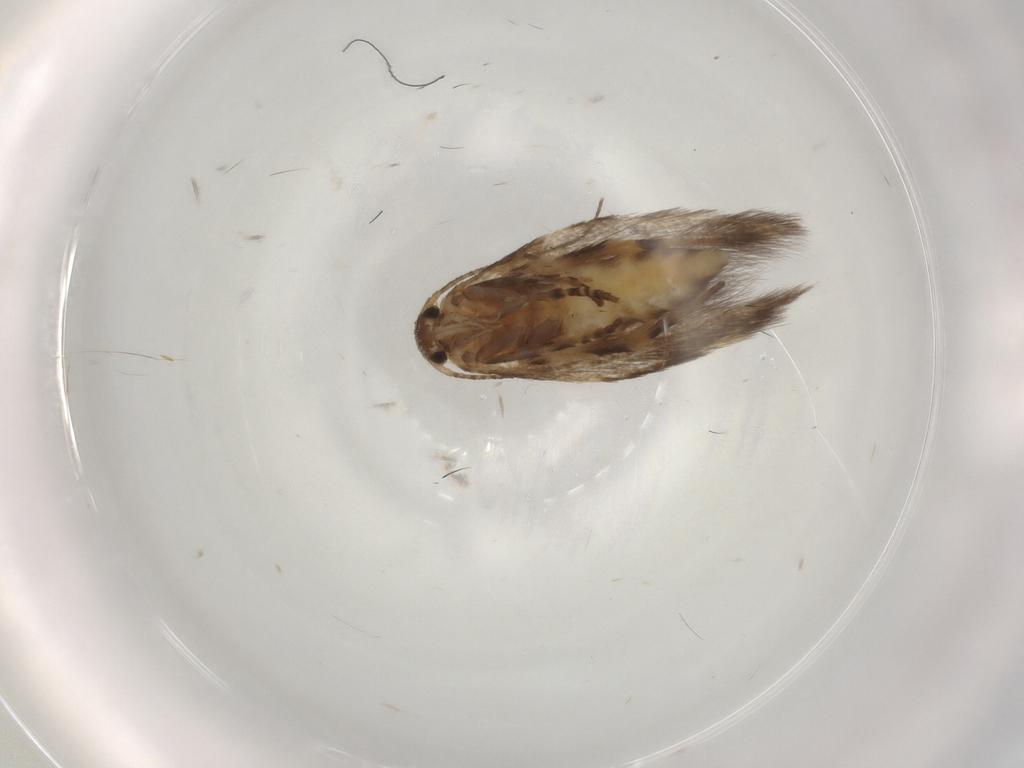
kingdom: Animalia
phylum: Arthropoda
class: Insecta
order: Lepidoptera
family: Elachistidae
